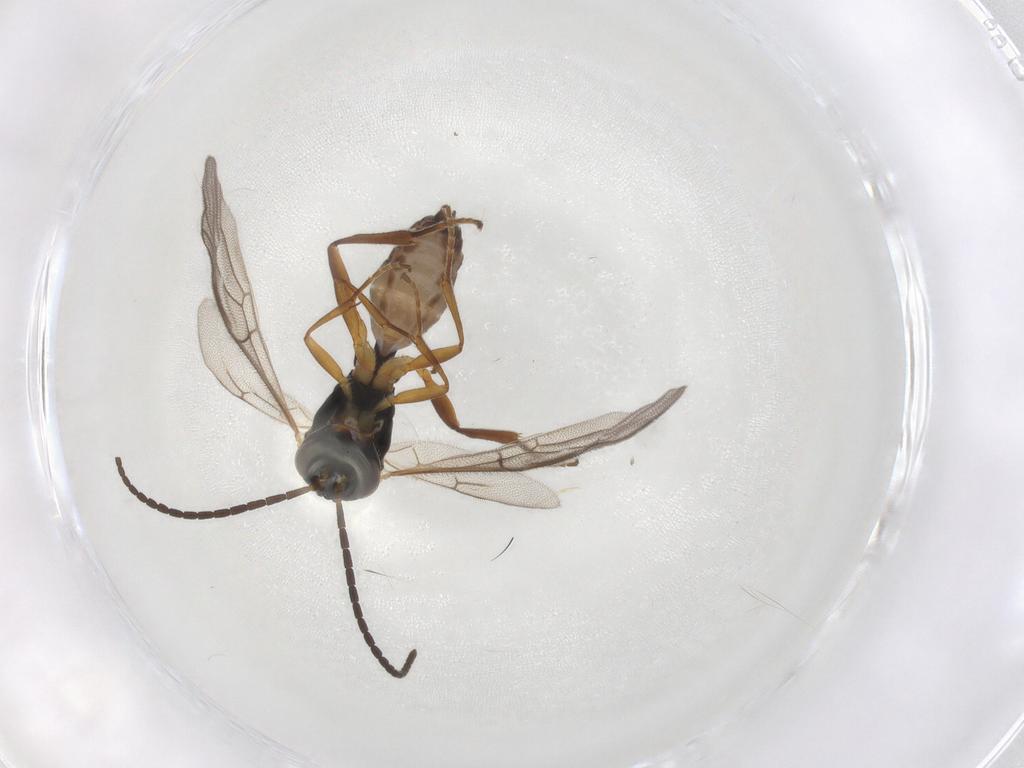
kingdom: Animalia
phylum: Arthropoda
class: Insecta
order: Hymenoptera
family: Ichneumonidae
